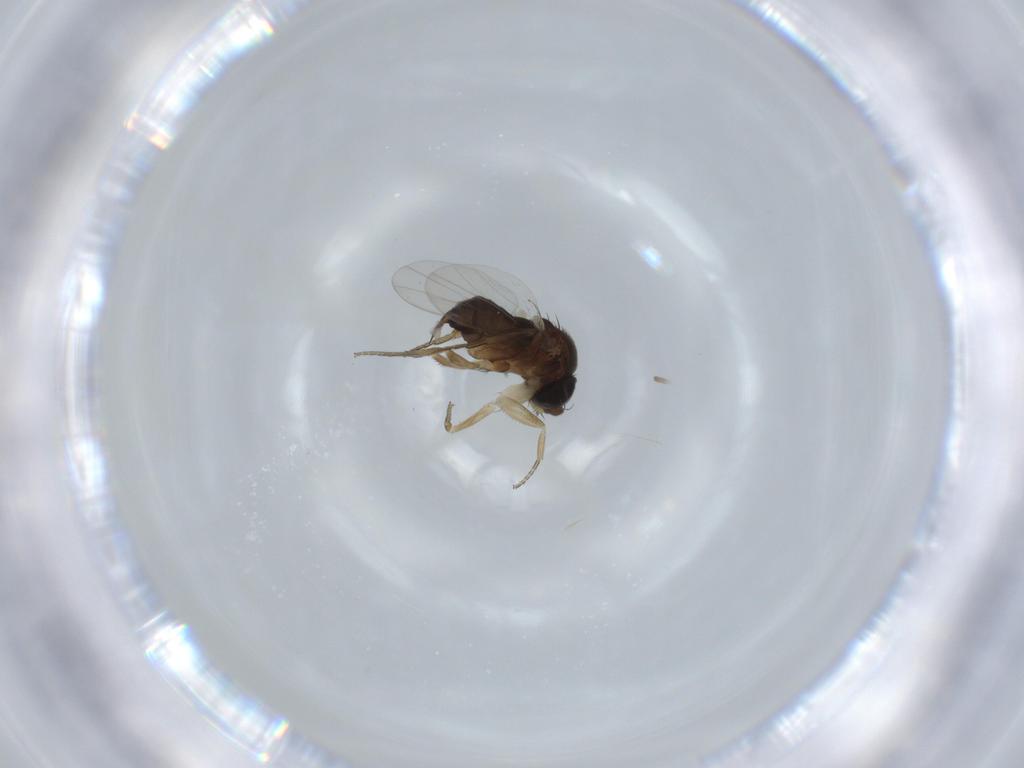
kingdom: Animalia
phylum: Arthropoda
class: Insecta
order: Diptera
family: Phoridae
